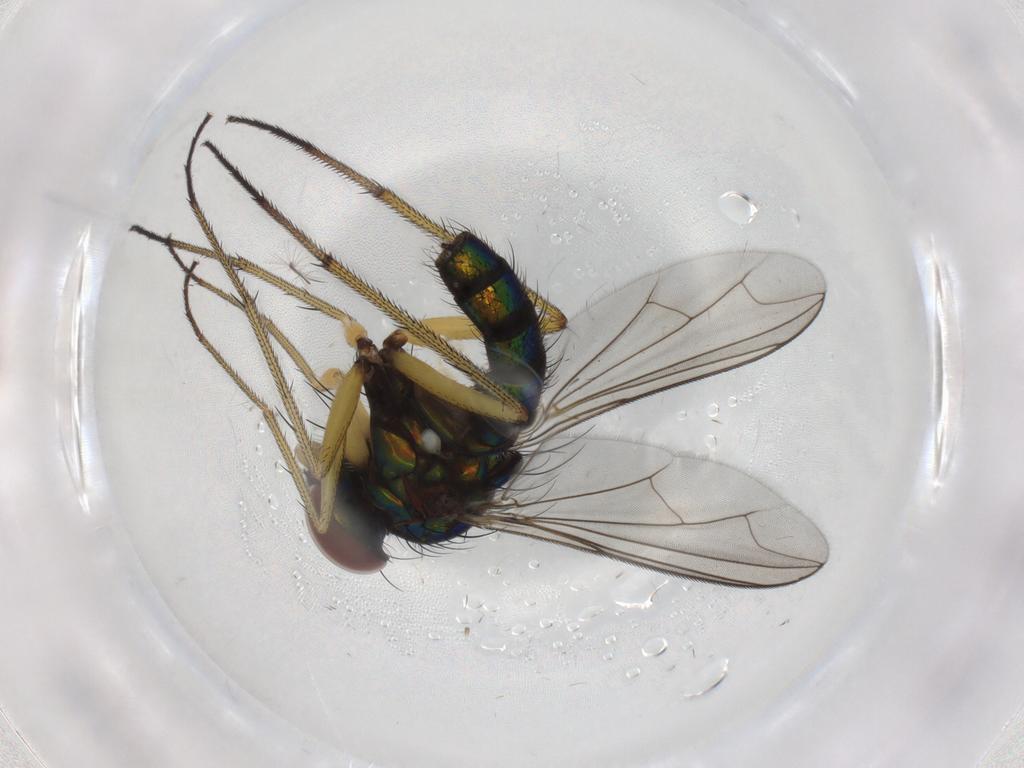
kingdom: Animalia
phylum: Arthropoda
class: Insecta
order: Diptera
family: Dolichopodidae
